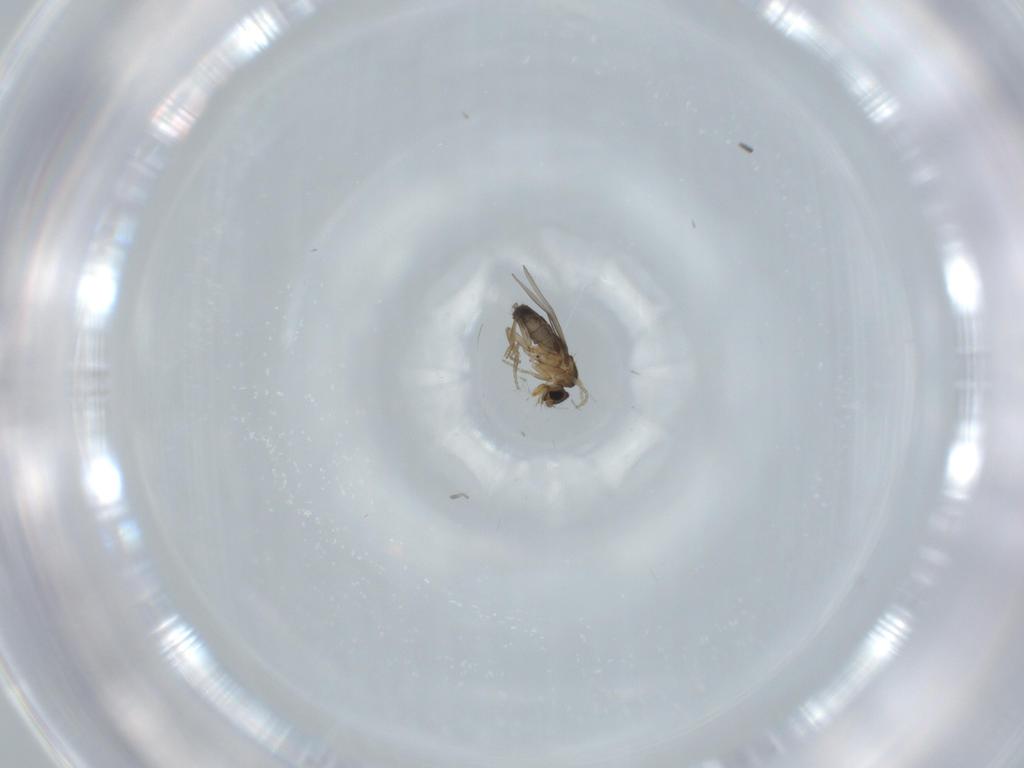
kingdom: Animalia
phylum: Arthropoda
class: Insecta
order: Diptera
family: Phoridae
